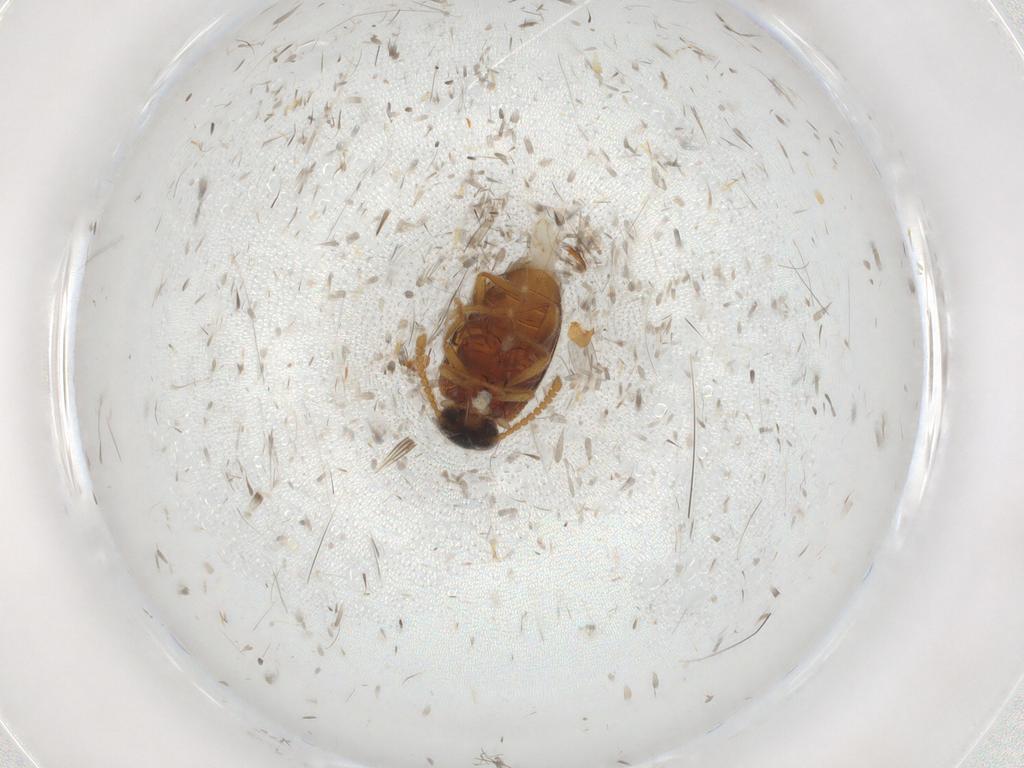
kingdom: Animalia
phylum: Arthropoda
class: Insecta
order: Coleoptera
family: Aderidae
